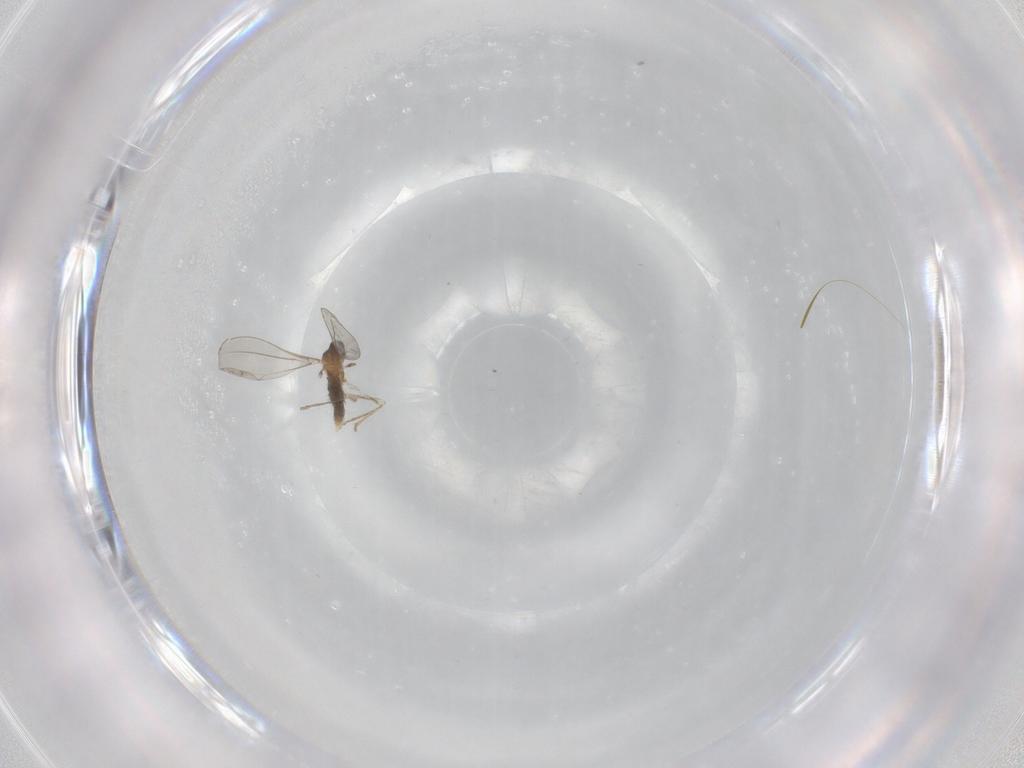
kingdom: Animalia
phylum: Arthropoda
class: Insecta
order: Diptera
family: Cecidomyiidae
